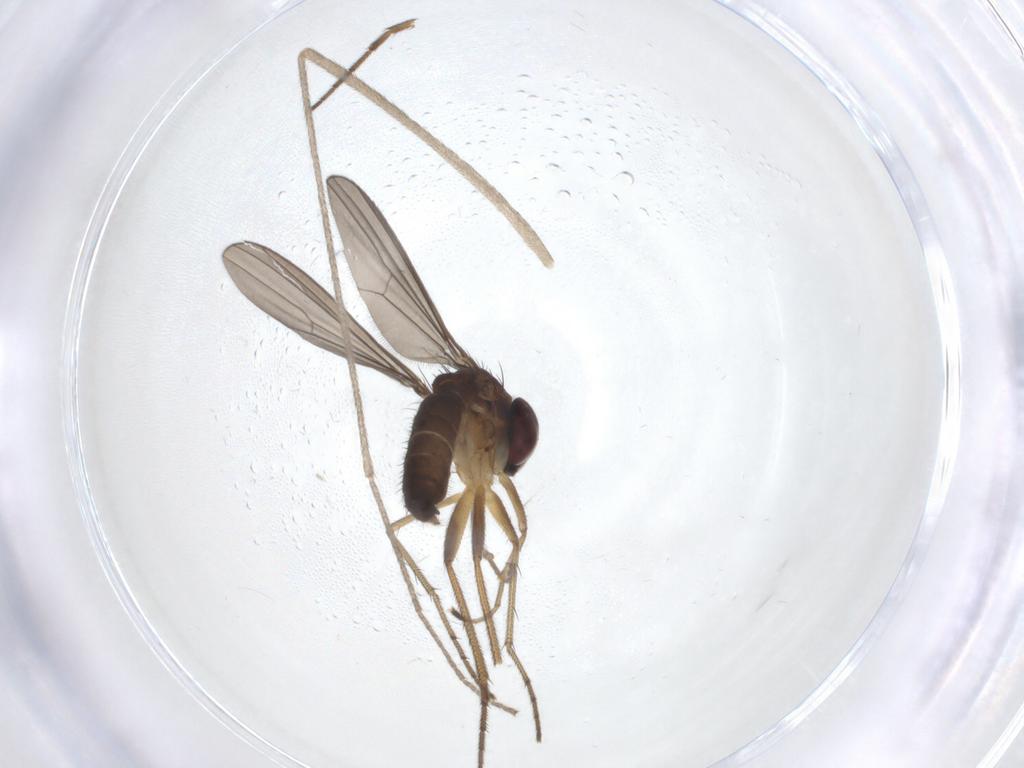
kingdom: Animalia
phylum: Arthropoda
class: Insecta
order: Diptera
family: Dolichopodidae
